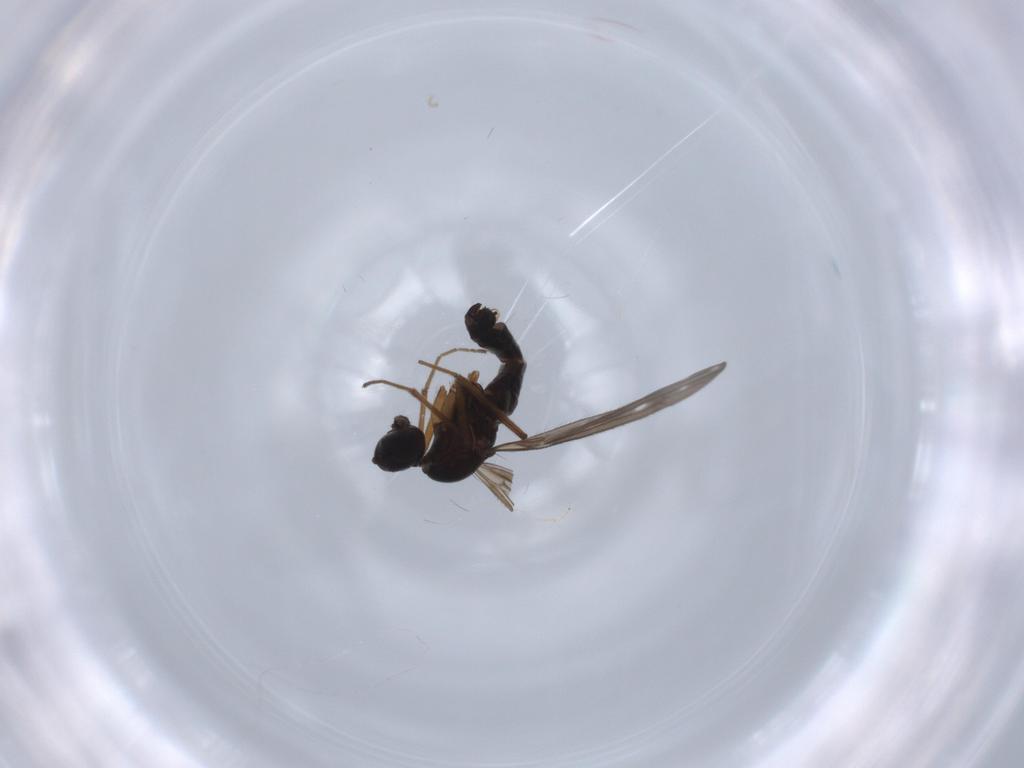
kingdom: Animalia
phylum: Arthropoda
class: Insecta
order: Diptera
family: Empididae
